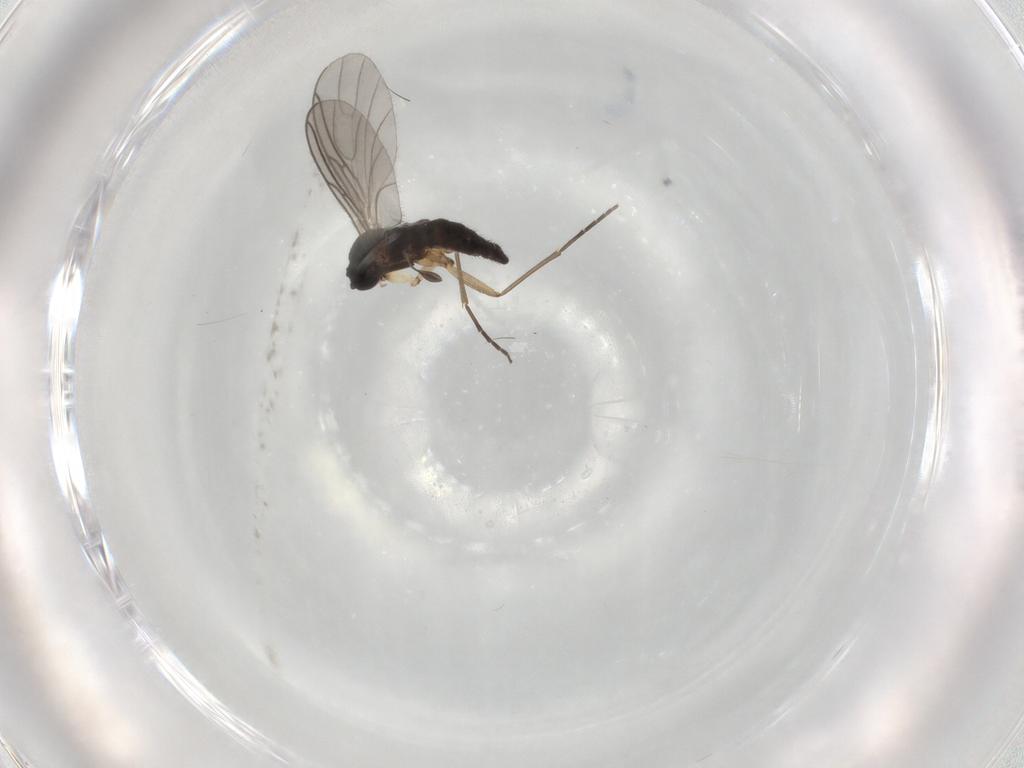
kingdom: Animalia
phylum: Arthropoda
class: Insecta
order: Diptera
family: Sciaridae
